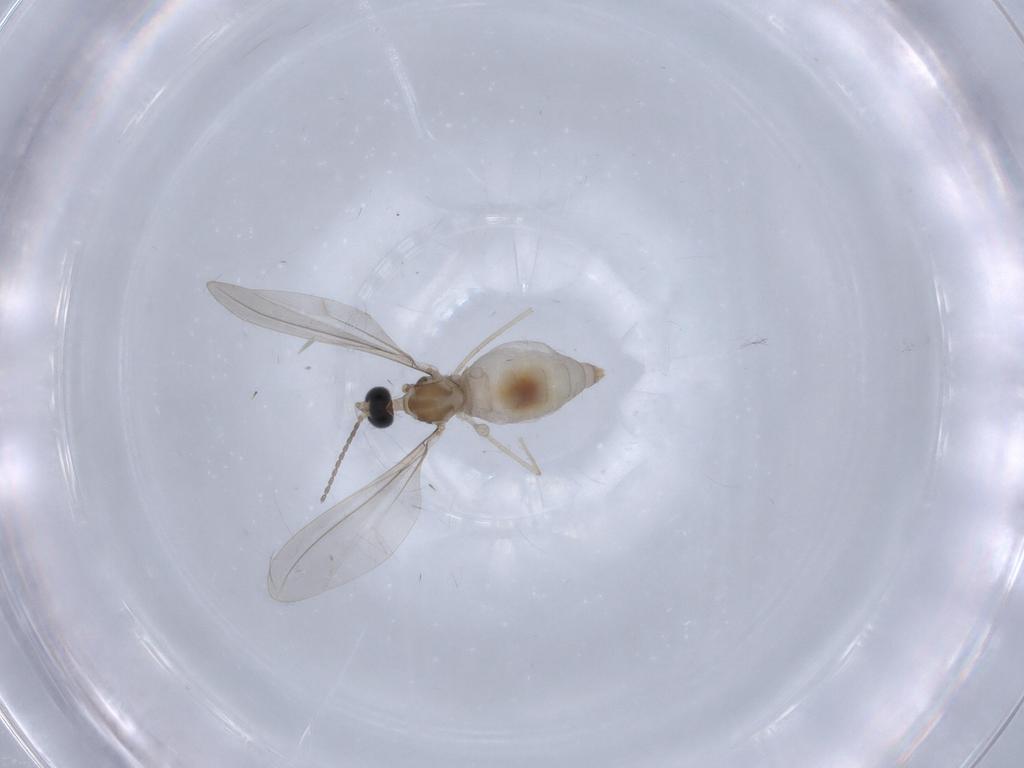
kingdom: Animalia
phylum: Arthropoda
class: Insecta
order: Diptera
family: Cecidomyiidae
